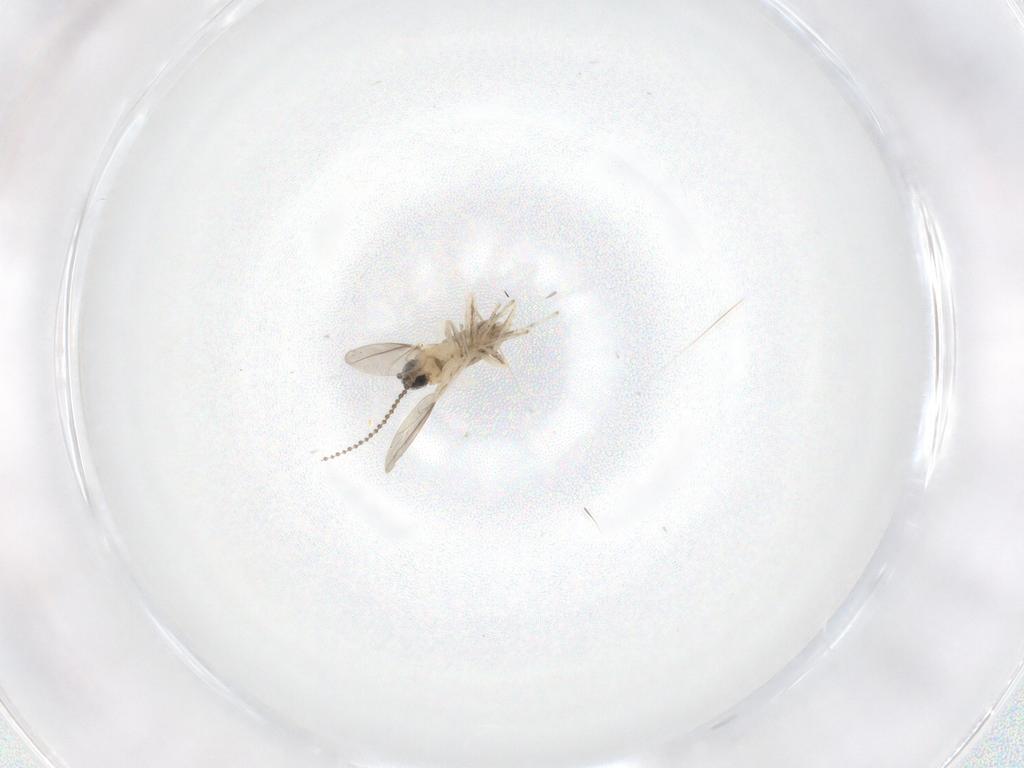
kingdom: Animalia
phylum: Arthropoda
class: Insecta
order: Diptera
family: Cecidomyiidae
